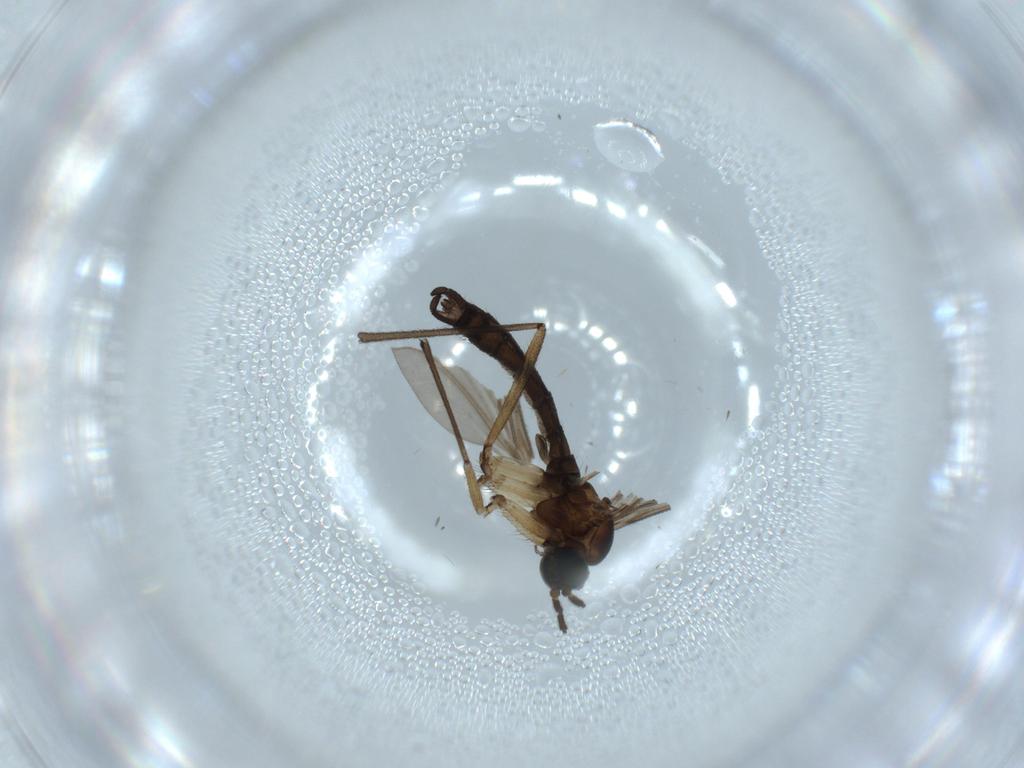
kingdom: Animalia
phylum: Arthropoda
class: Insecta
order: Diptera
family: Sciaridae
